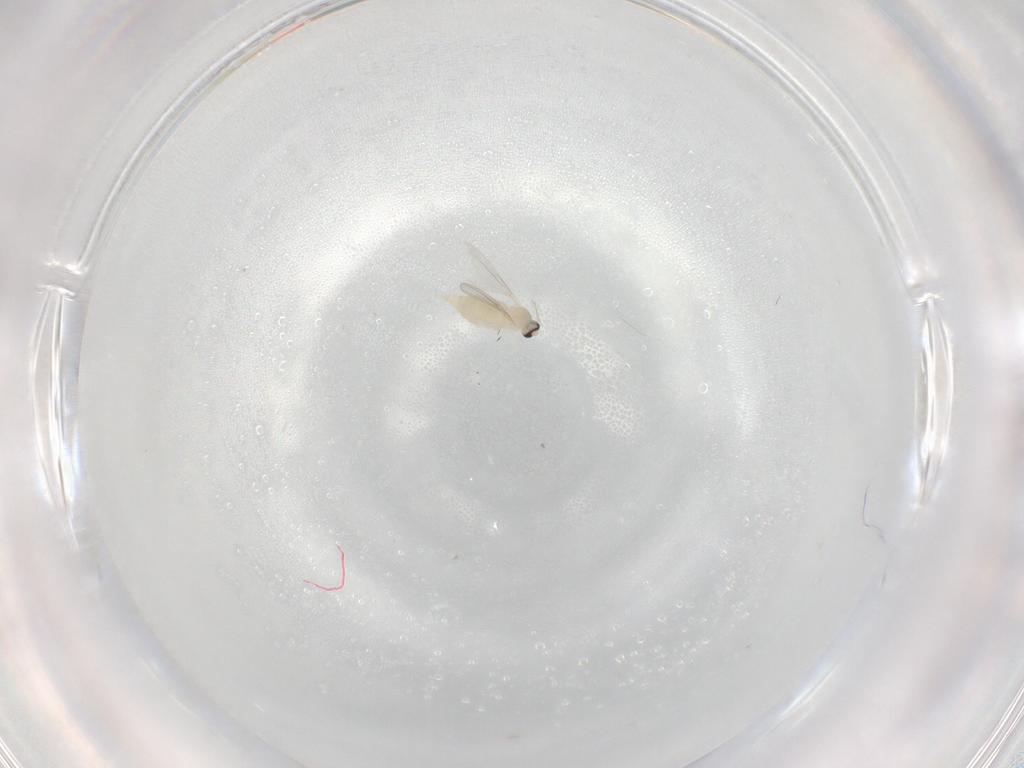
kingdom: Animalia
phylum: Arthropoda
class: Insecta
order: Diptera
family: Cecidomyiidae
